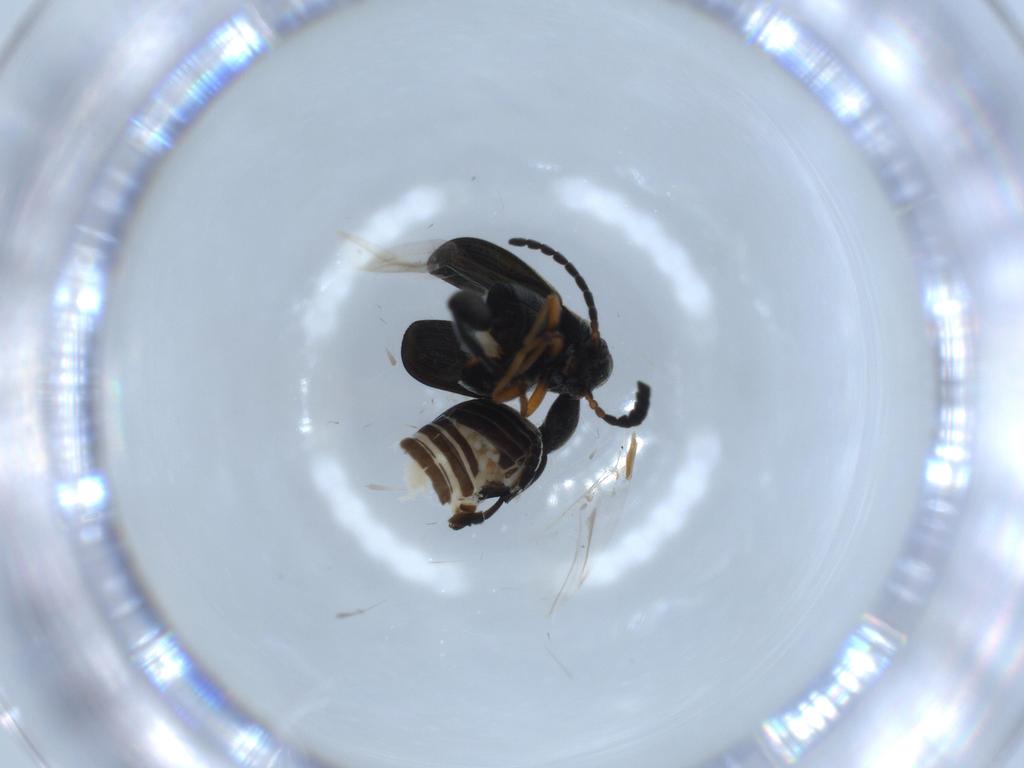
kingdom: Animalia
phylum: Arthropoda
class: Insecta
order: Coleoptera
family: Chrysomelidae
